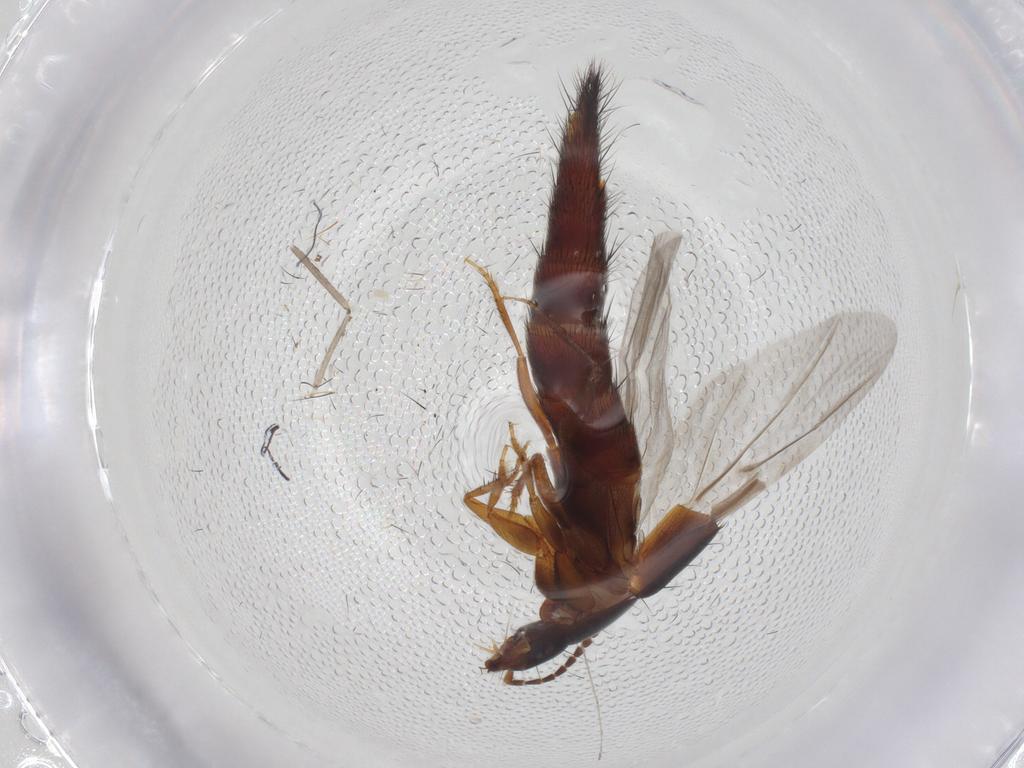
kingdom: Animalia
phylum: Arthropoda
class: Insecta
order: Coleoptera
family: Staphylinidae
